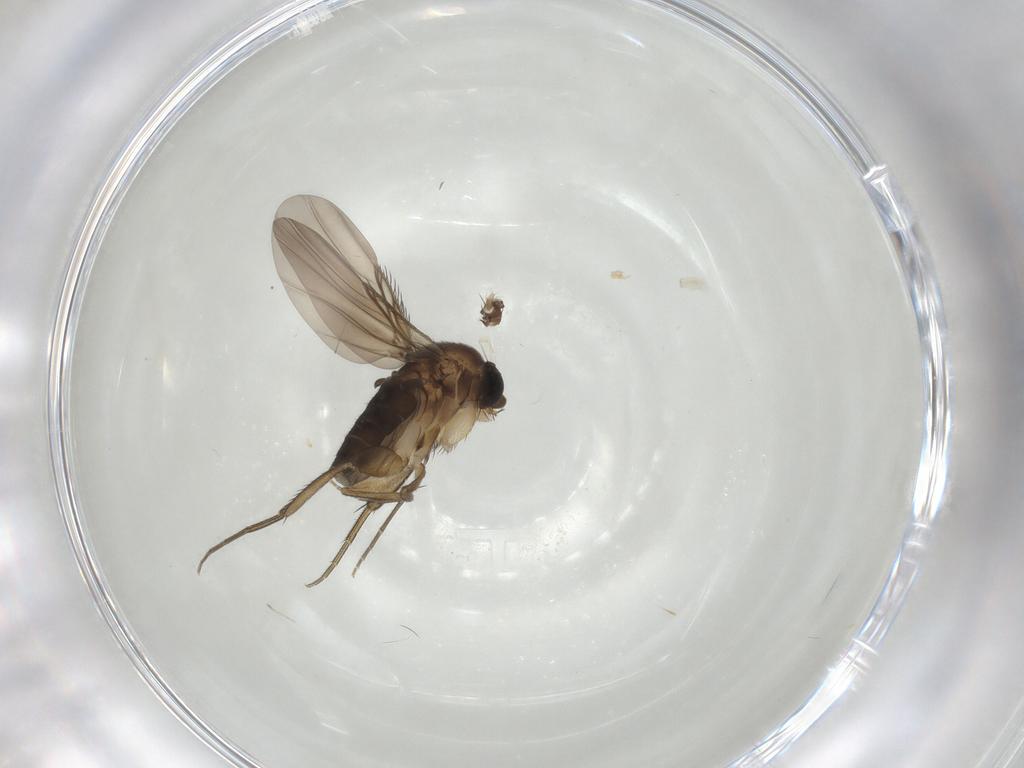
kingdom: Animalia
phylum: Arthropoda
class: Insecta
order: Diptera
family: Phoridae
